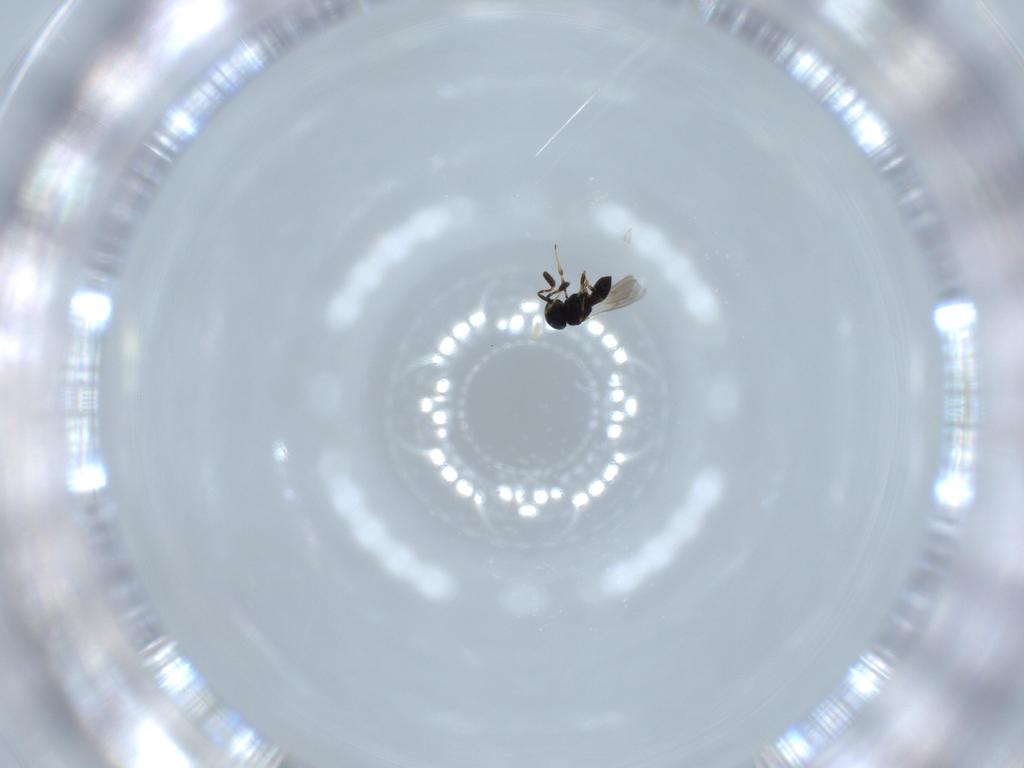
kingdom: Animalia
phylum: Arthropoda
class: Insecta
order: Hymenoptera
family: Scelionidae
